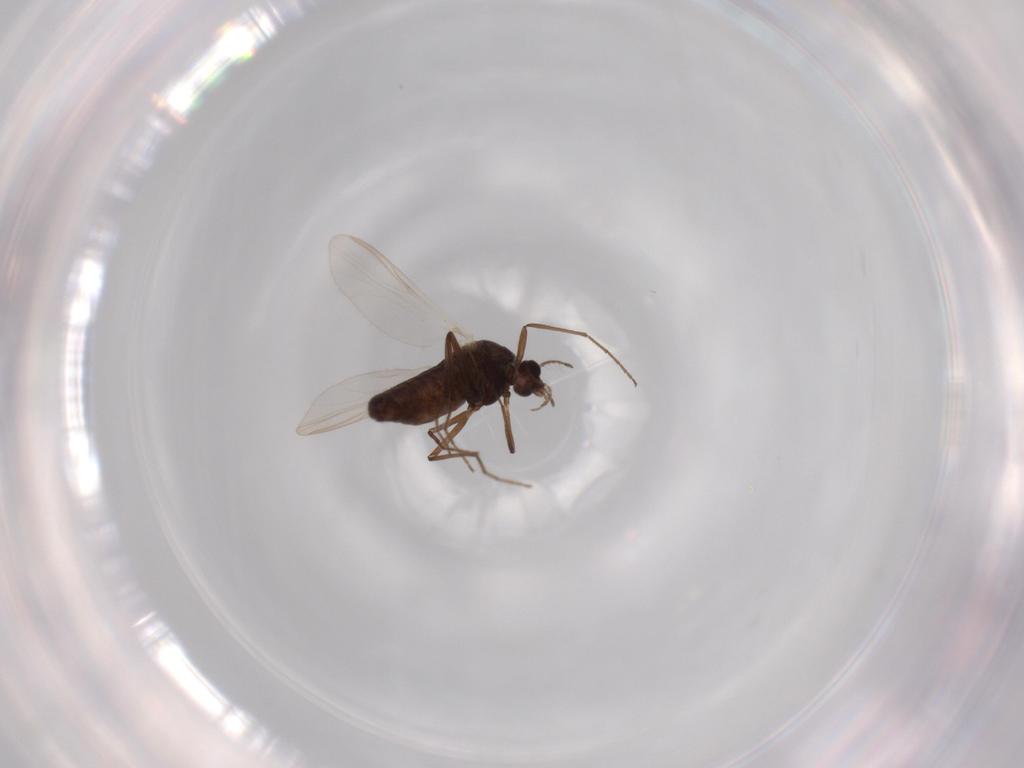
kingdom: Animalia
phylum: Arthropoda
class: Insecta
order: Diptera
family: Chironomidae
